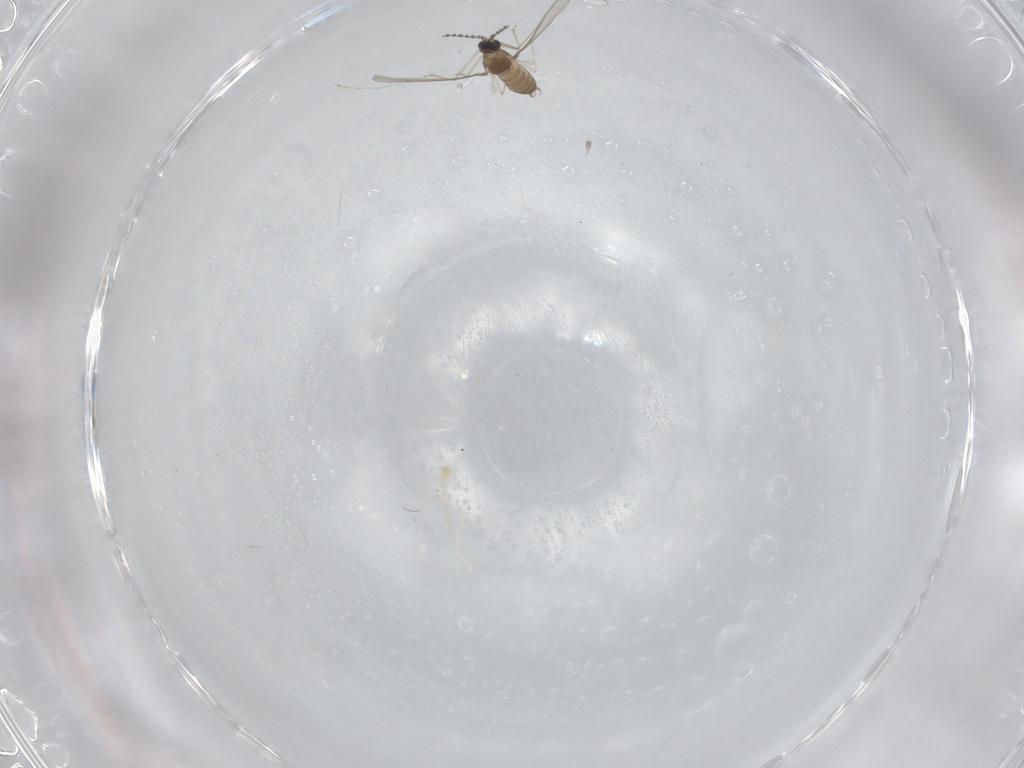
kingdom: Animalia
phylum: Arthropoda
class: Insecta
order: Diptera
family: Cecidomyiidae
